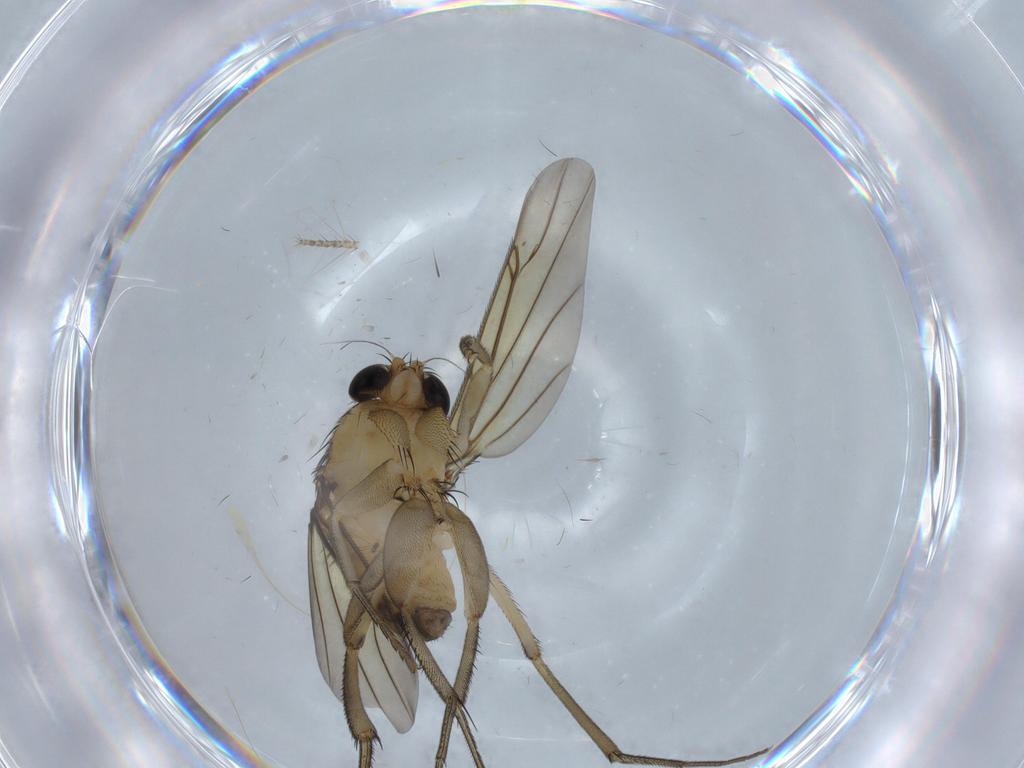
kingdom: Animalia
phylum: Arthropoda
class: Insecta
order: Diptera
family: Phoridae
